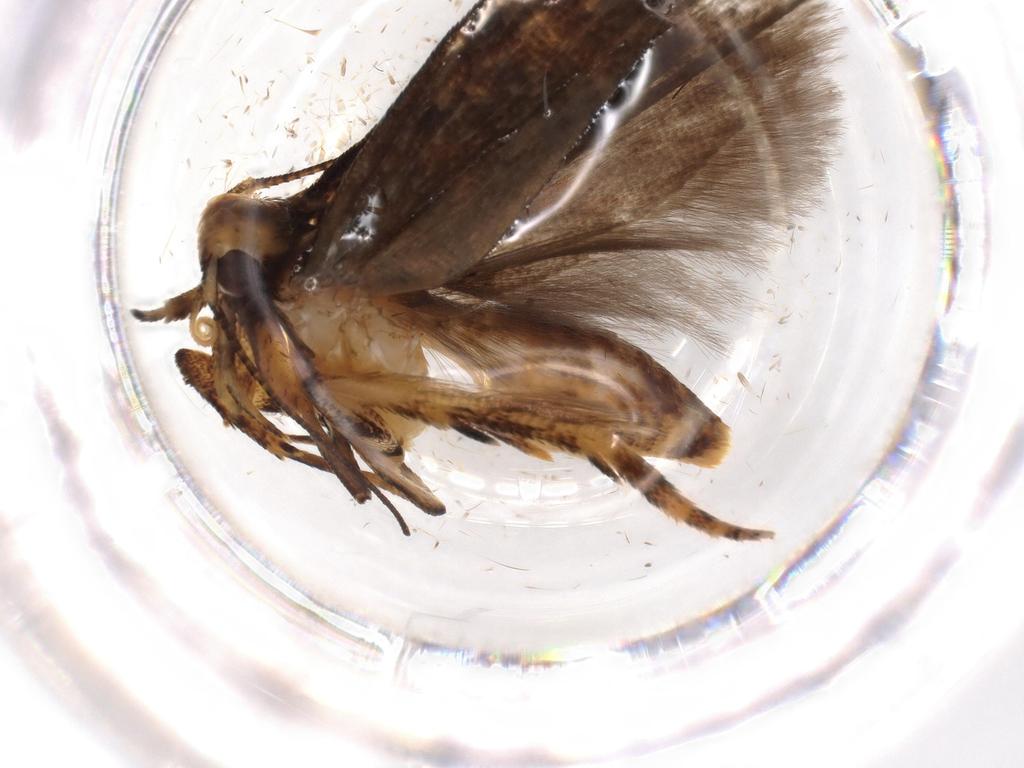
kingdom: Animalia
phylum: Arthropoda
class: Insecta
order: Lepidoptera
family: Gelechiidae
